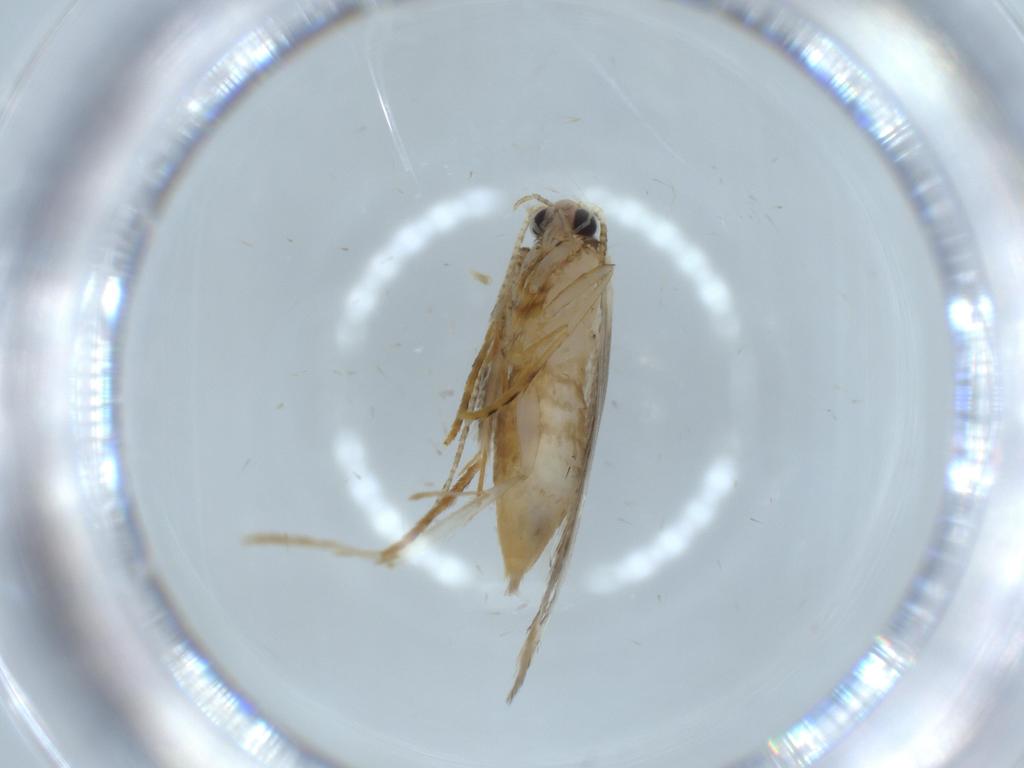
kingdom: Animalia
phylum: Arthropoda
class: Insecta
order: Lepidoptera
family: Tineidae
